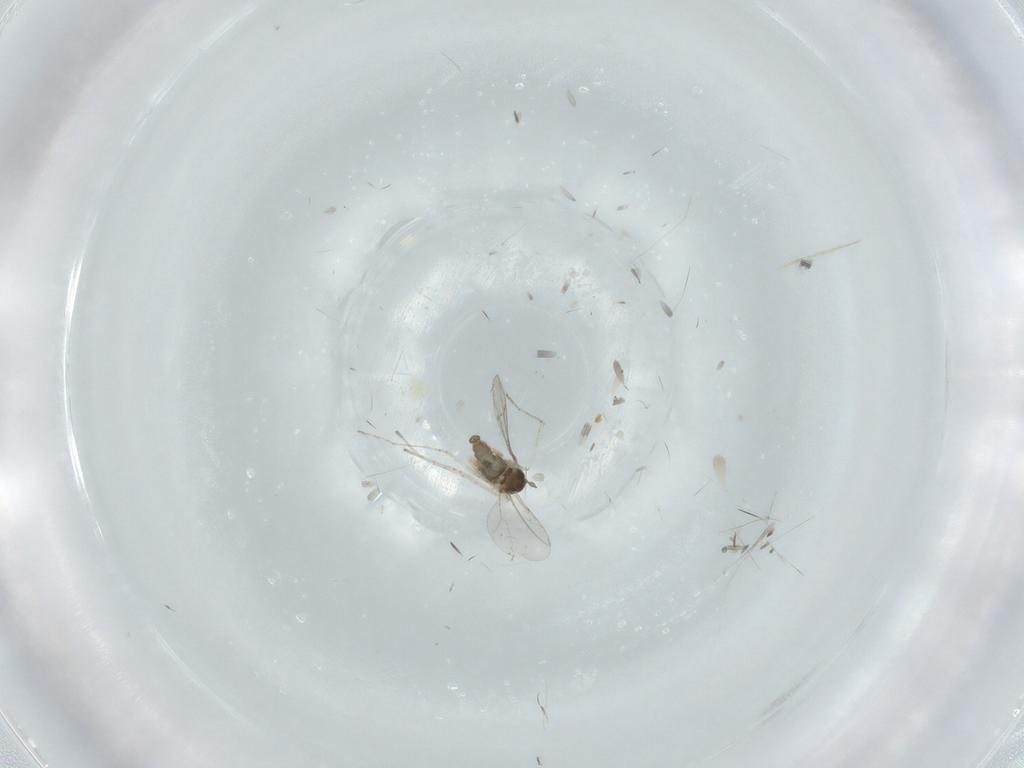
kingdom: Animalia
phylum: Arthropoda
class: Insecta
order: Diptera
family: Cecidomyiidae
